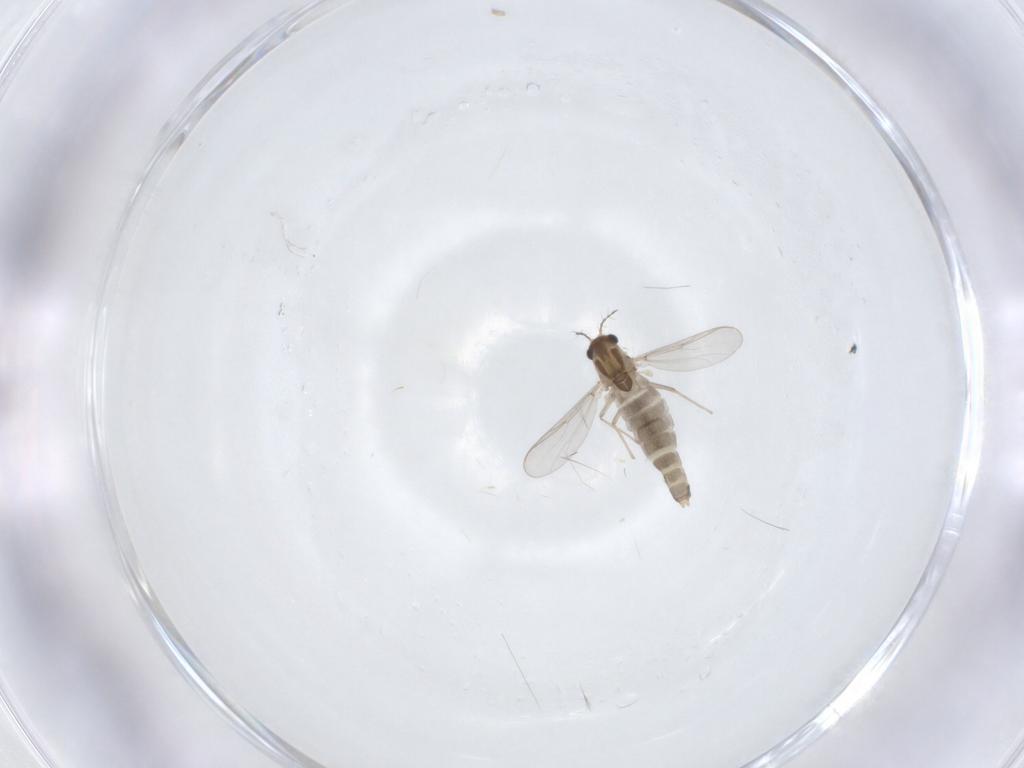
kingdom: Animalia
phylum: Arthropoda
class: Insecta
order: Diptera
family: Chironomidae
